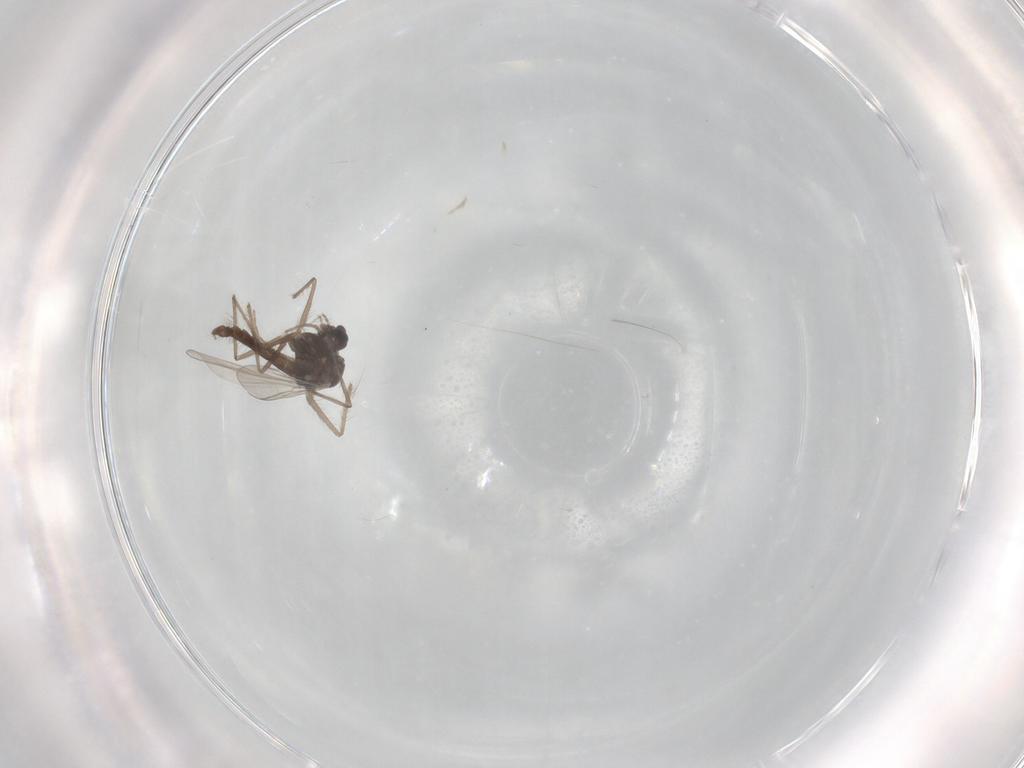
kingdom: Animalia
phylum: Arthropoda
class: Insecta
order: Diptera
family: Chironomidae
